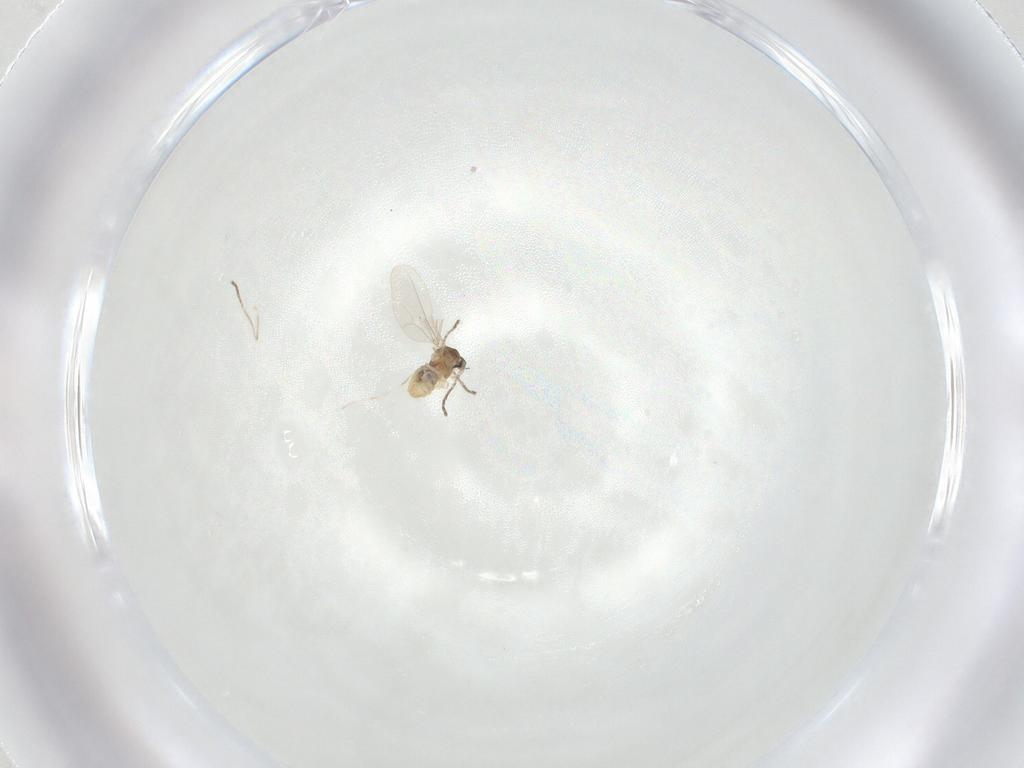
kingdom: Animalia
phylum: Arthropoda
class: Insecta
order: Diptera
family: Cecidomyiidae
